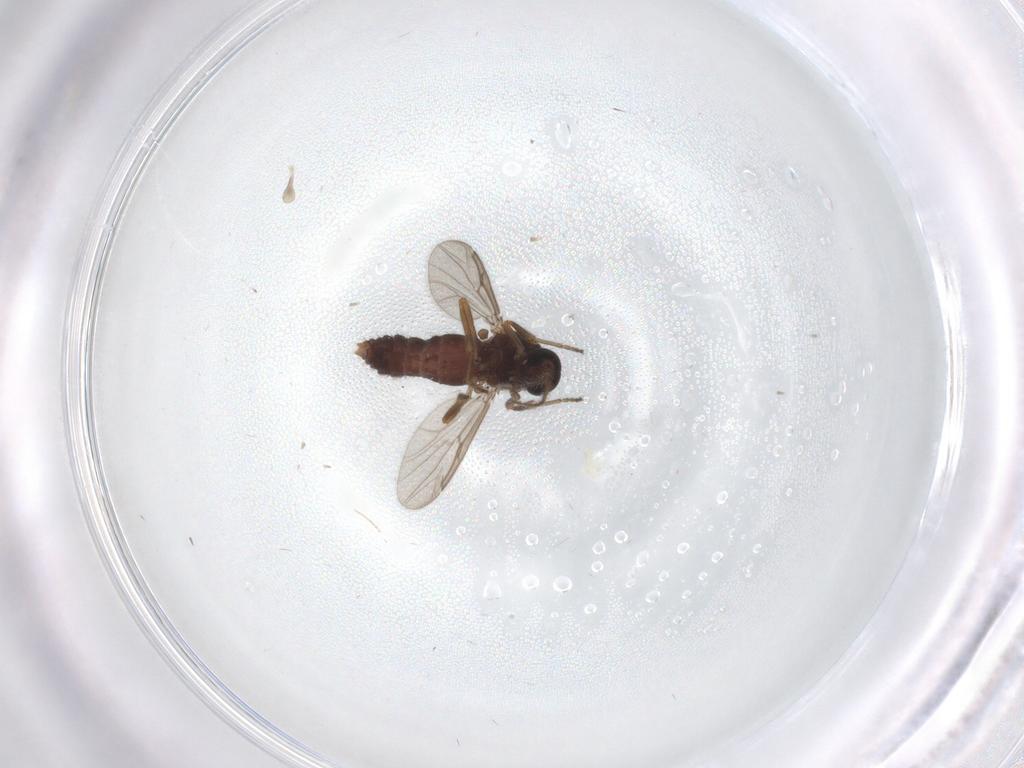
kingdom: Animalia
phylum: Arthropoda
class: Insecta
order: Diptera
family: Ceratopogonidae
